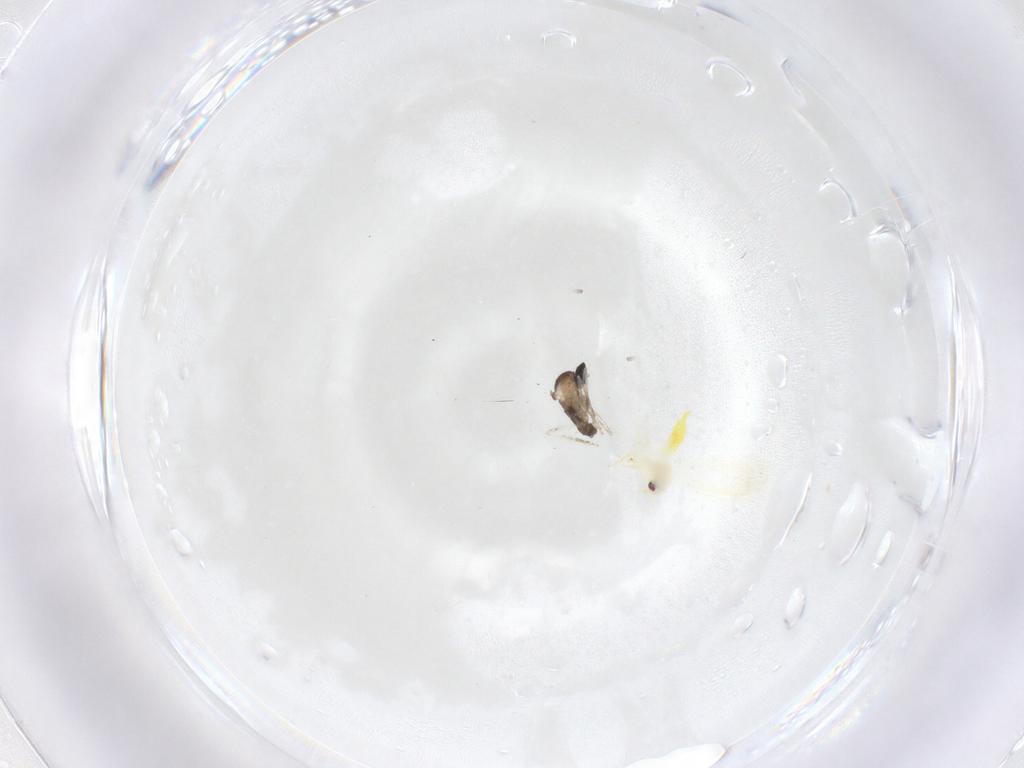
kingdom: Animalia
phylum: Arthropoda
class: Insecta
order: Diptera
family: Cecidomyiidae
